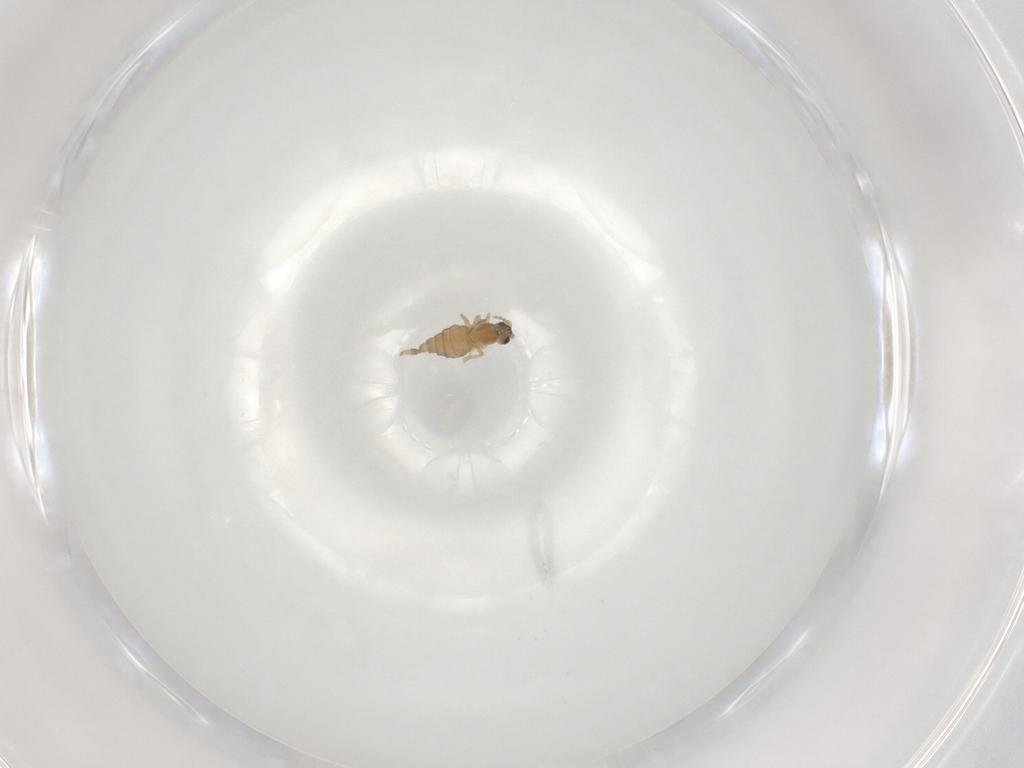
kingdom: Animalia
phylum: Arthropoda
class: Insecta
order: Diptera
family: Cecidomyiidae
